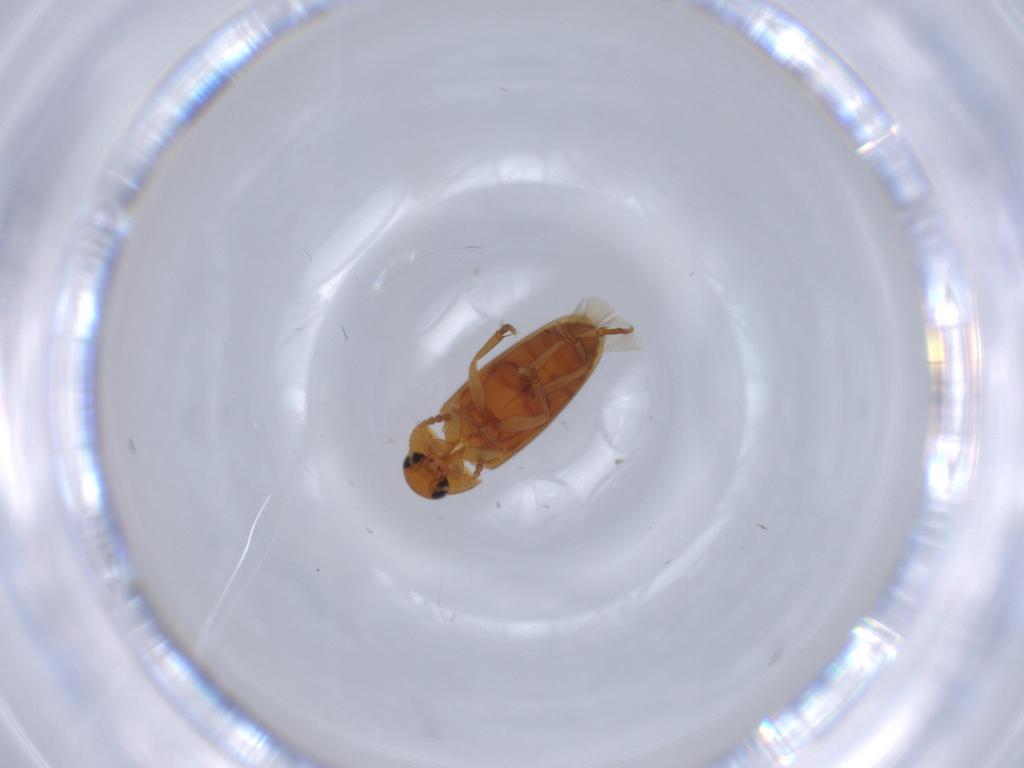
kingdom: Animalia
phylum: Arthropoda
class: Insecta
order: Coleoptera
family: Scraptiidae
